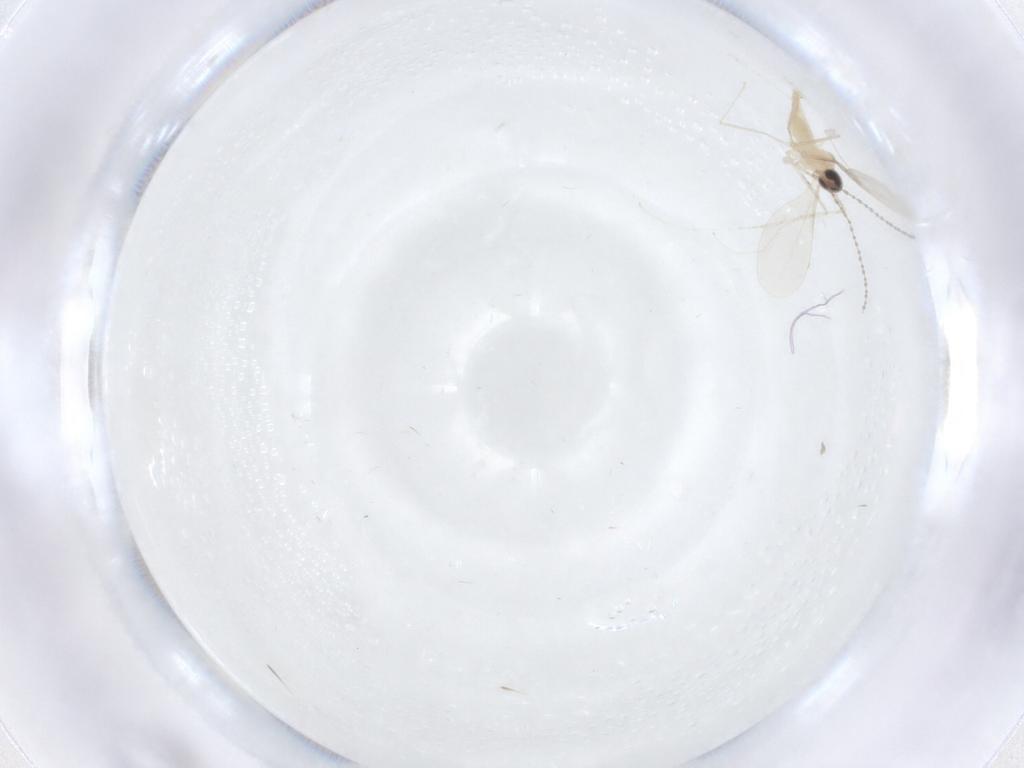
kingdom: Animalia
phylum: Arthropoda
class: Insecta
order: Diptera
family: Cecidomyiidae
